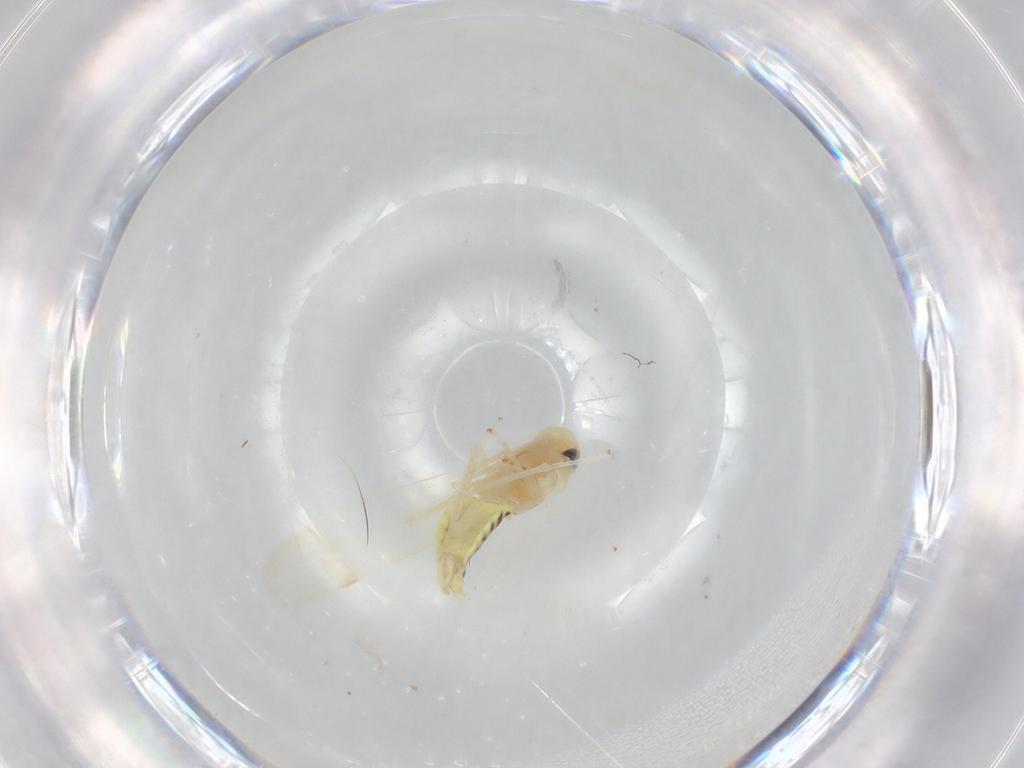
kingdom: Animalia
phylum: Arthropoda
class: Insecta
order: Hemiptera
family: Cicadellidae
